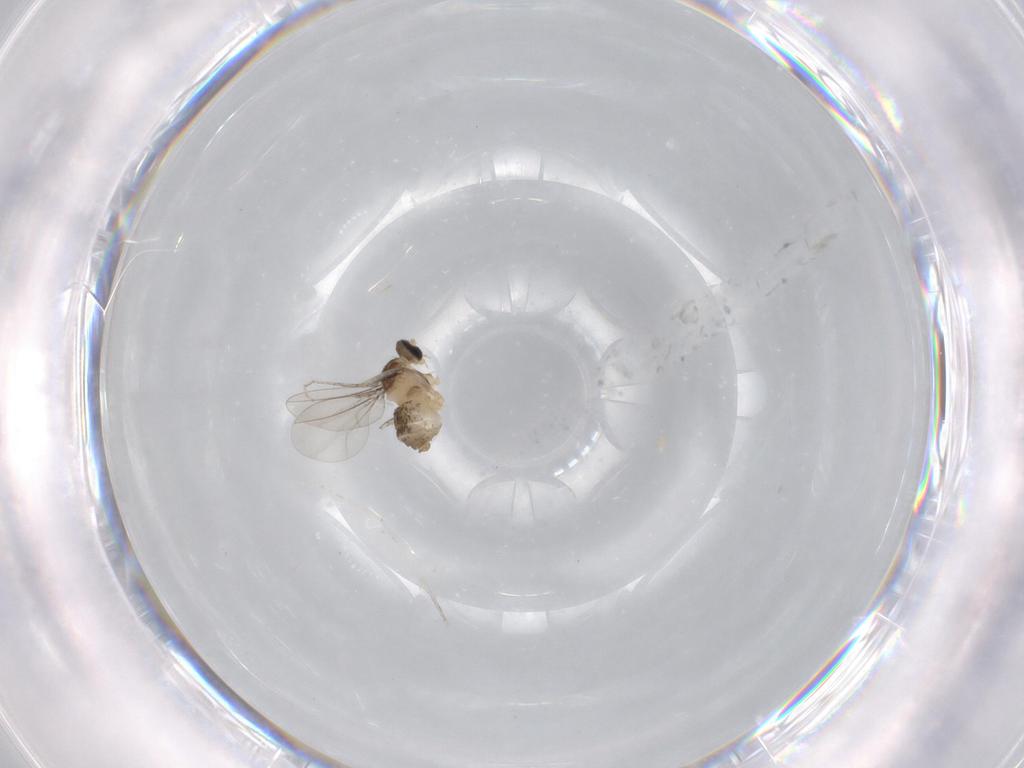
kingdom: Animalia
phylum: Arthropoda
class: Insecta
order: Diptera
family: Cecidomyiidae
